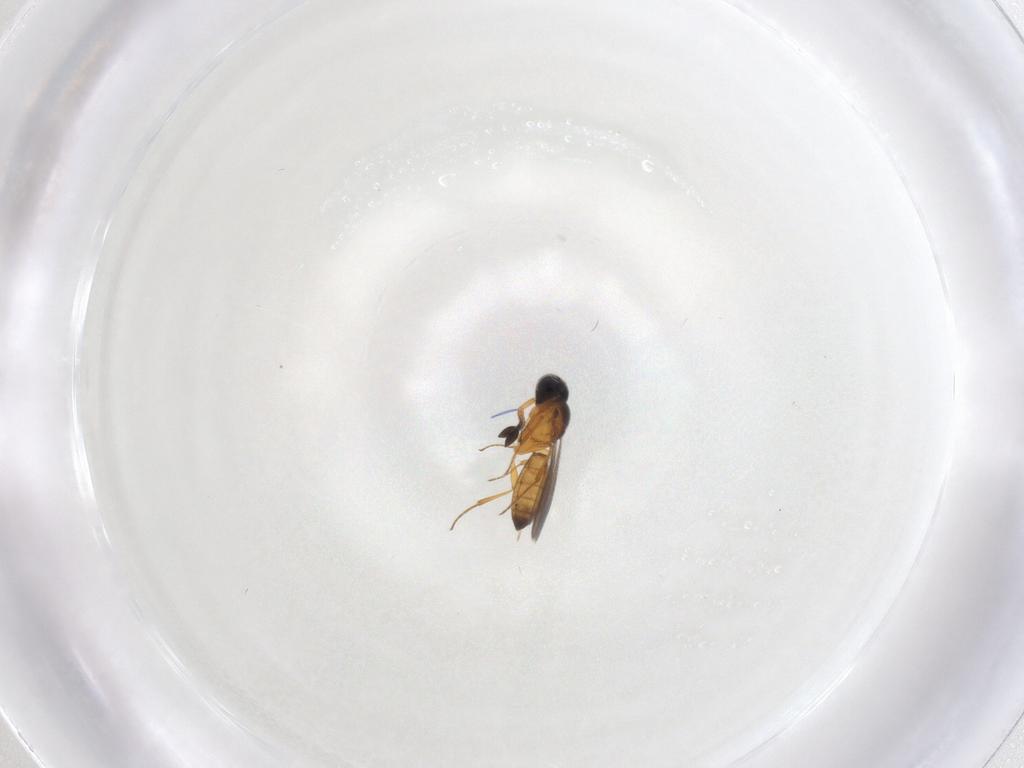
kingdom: Animalia
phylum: Arthropoda
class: Insecta
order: Hymenoptera
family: Scelionidae
